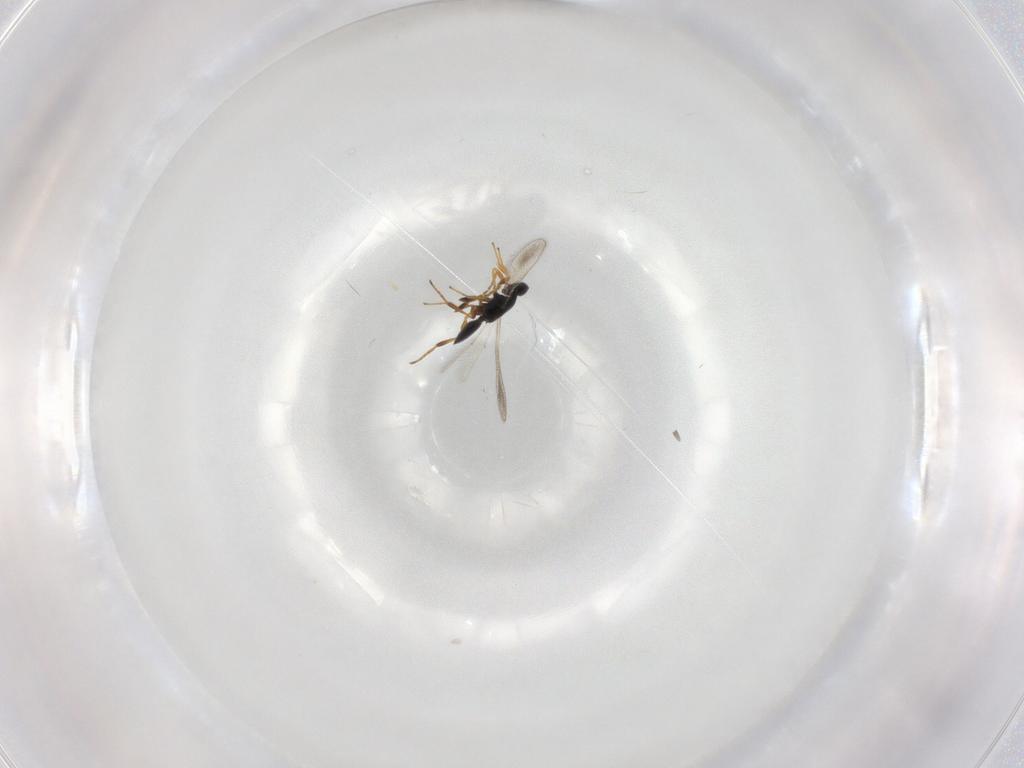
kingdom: Animalia
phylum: Arthropoda
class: Insecta
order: Hymenoptera
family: Platygastridae
